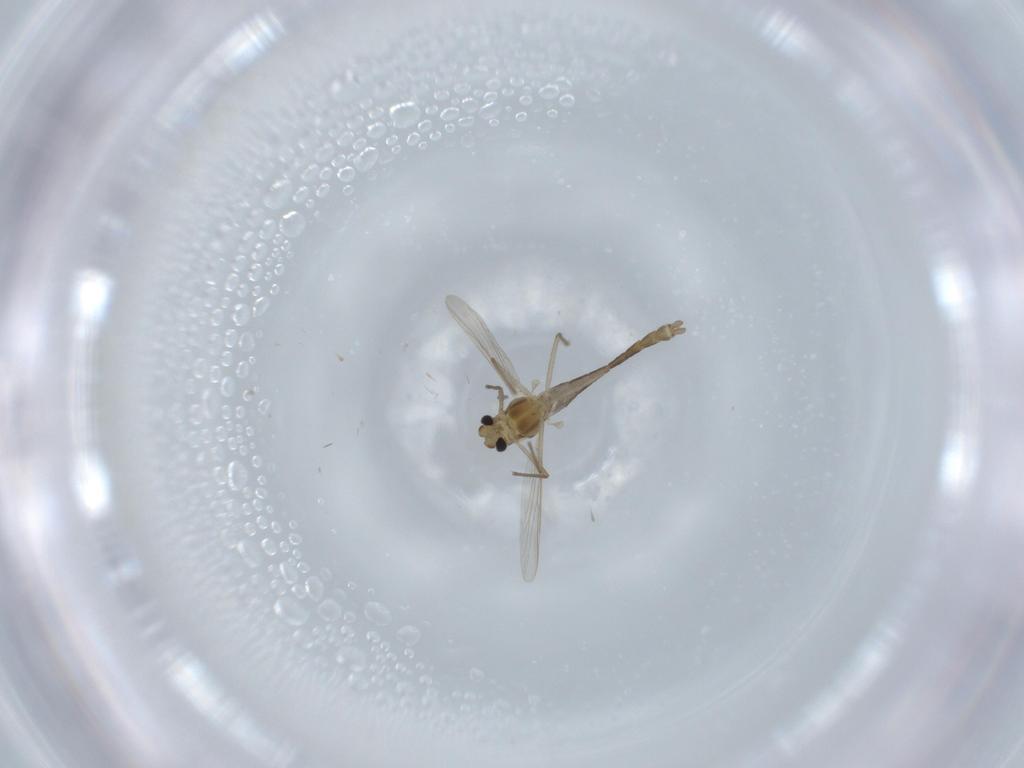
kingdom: Animalia
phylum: Arthropoda
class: Insecta
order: Diptera
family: Chironomidae
